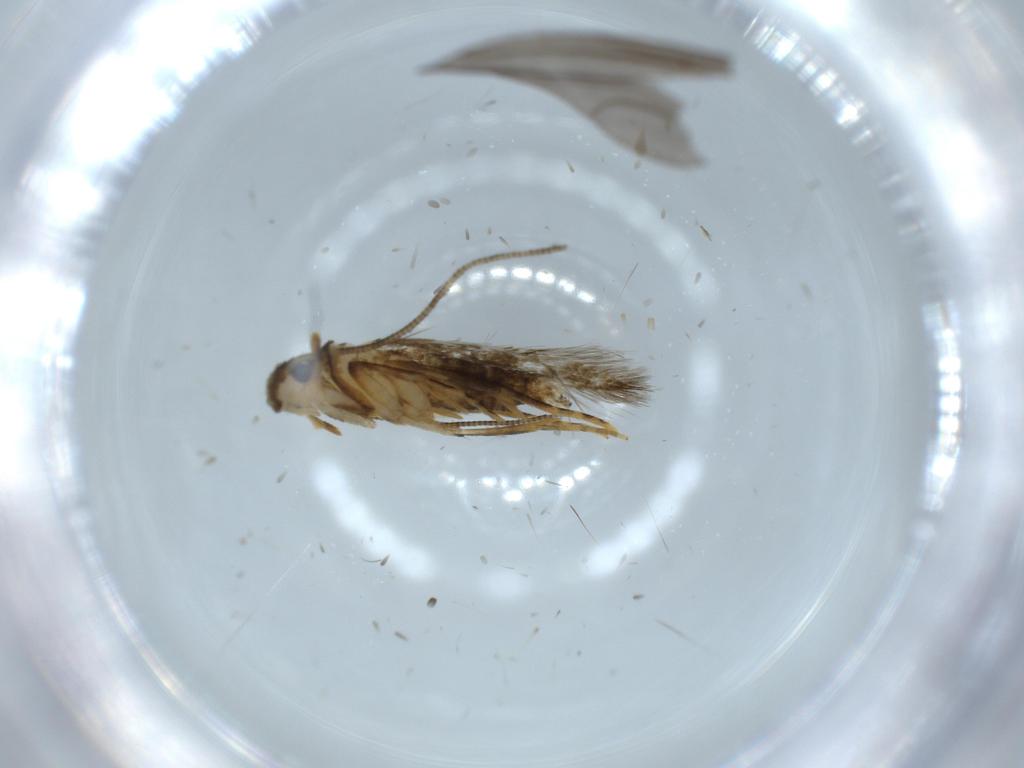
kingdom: Animalia
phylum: Arthropoda
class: Insecta
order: Lepidoptera
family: Tineidae
